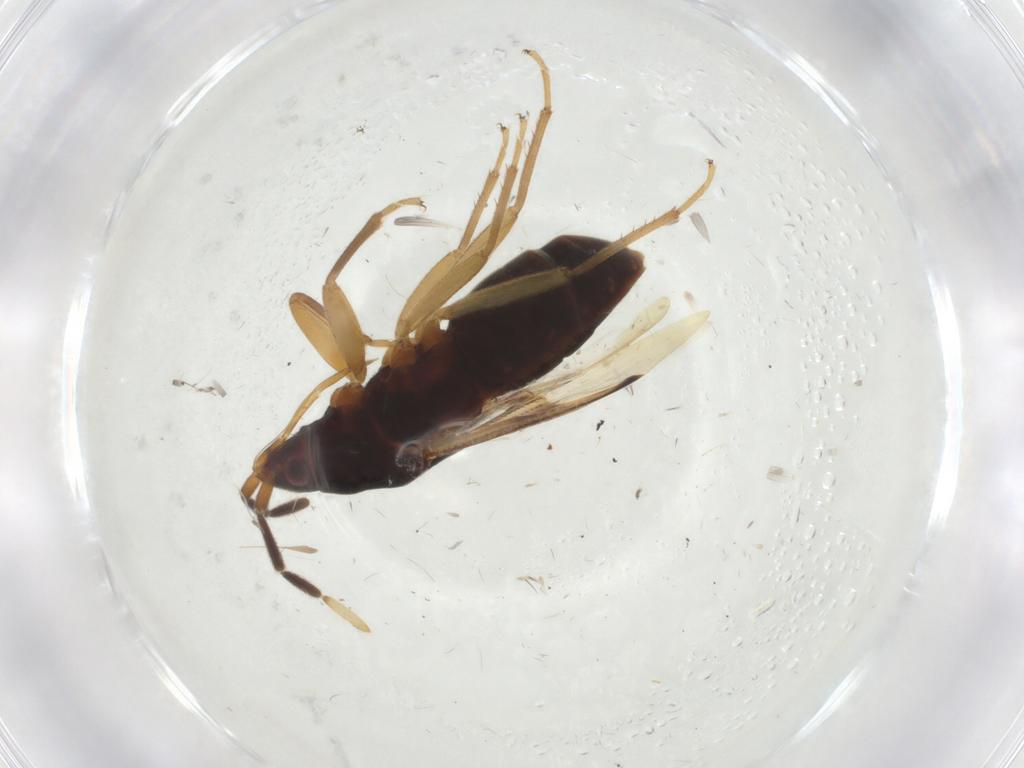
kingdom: Animalia
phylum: Arthropoda
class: Insecta
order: Hemiptera
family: Rhyparochromidae
